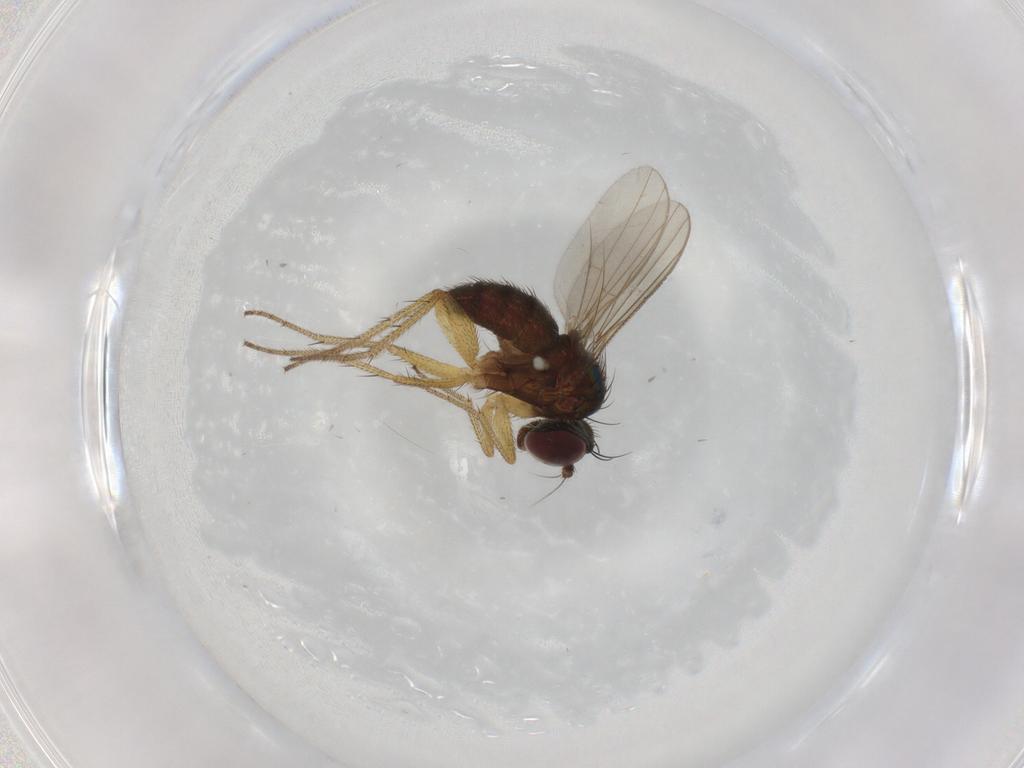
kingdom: Animalia
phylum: Arthropoda
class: Insecta
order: Diptera
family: Dolichopodidae
